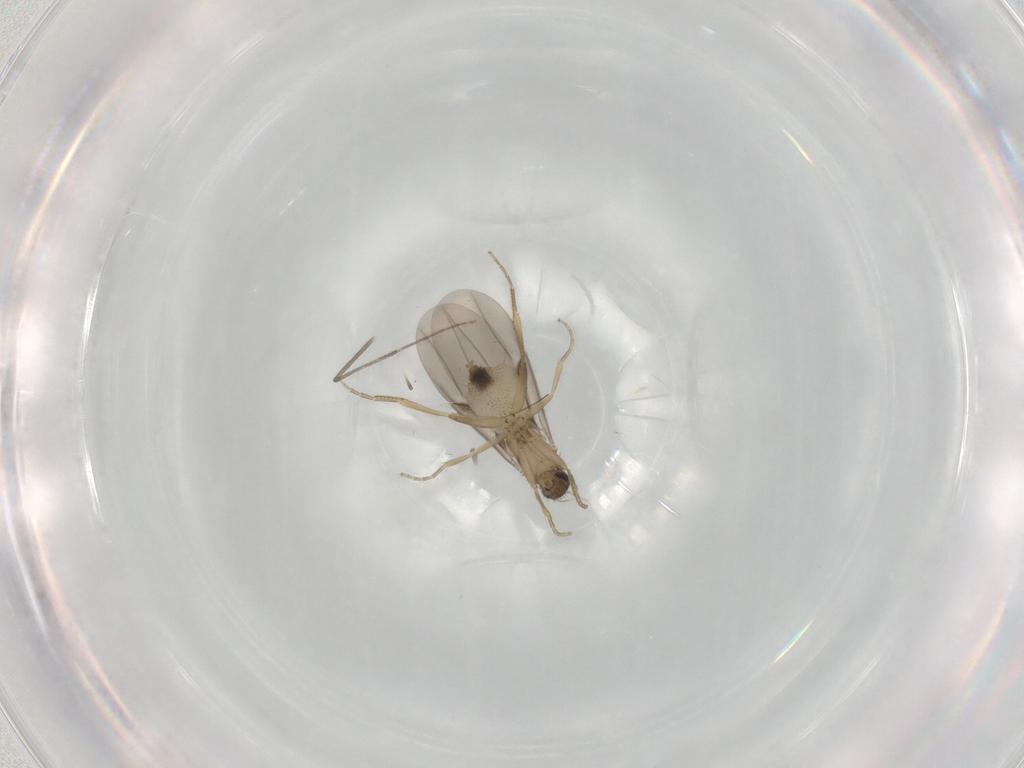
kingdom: Animalia
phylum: Arthropoda
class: Insecta
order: Diptera
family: Phoridae
